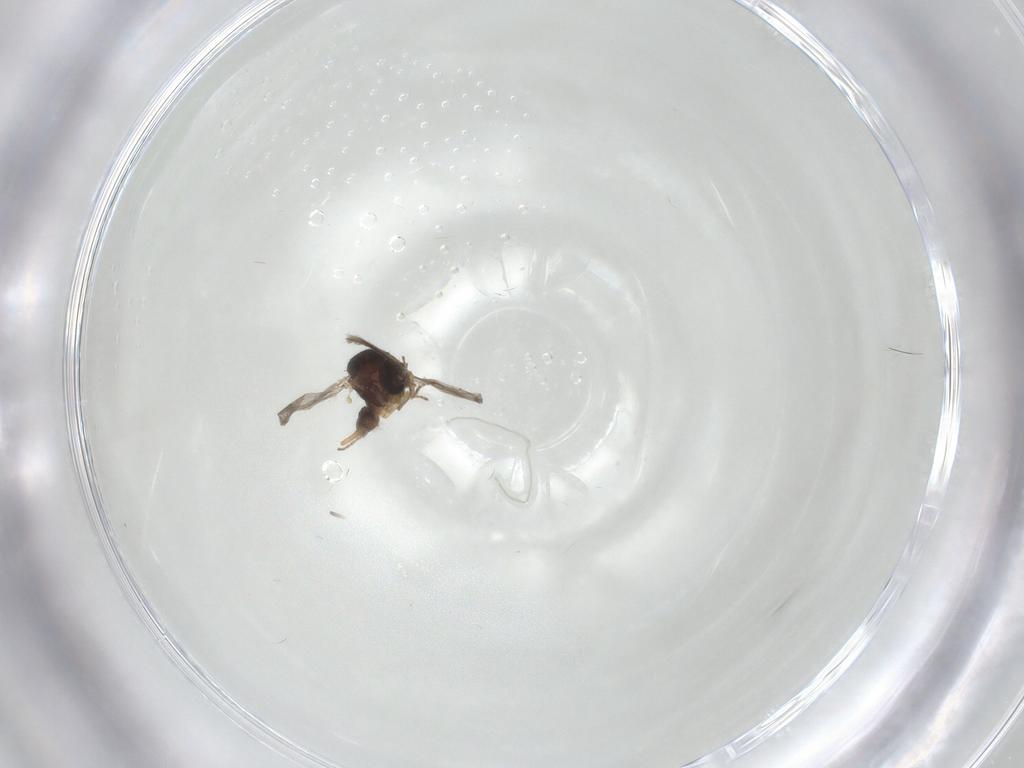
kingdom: Animalia
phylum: Arthropoda
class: Insecta
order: Diptera
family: Ceratopogonidae
